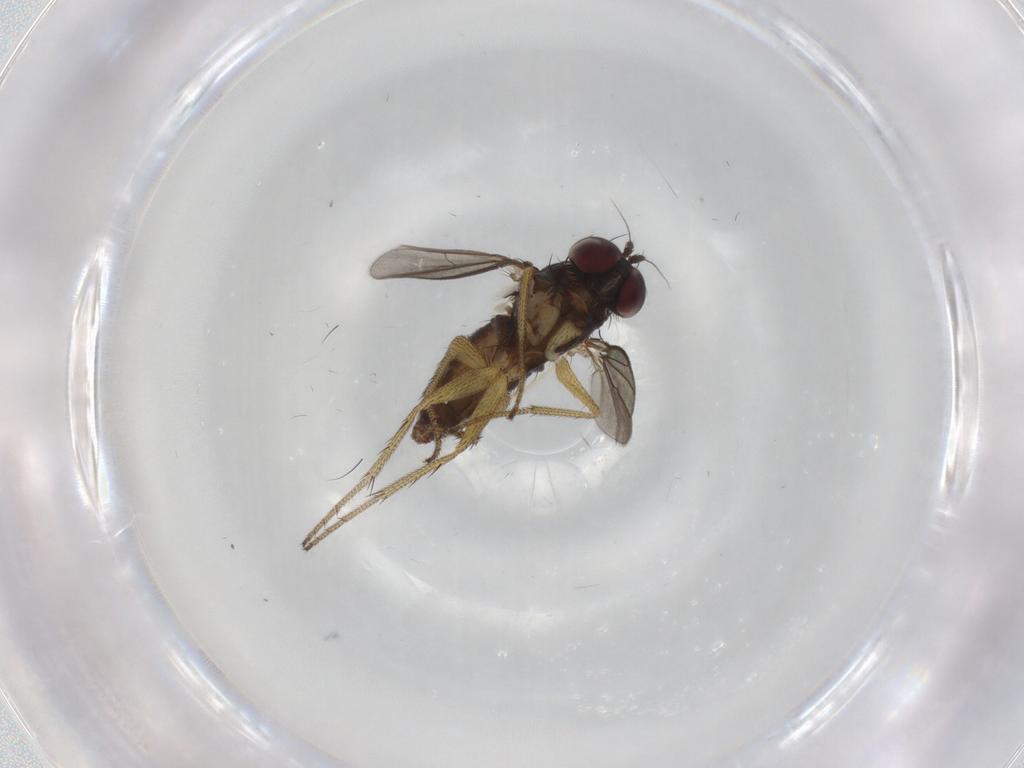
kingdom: Animalia
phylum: Arthropoda
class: Insecta
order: Diptera
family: Dolichopodidae
